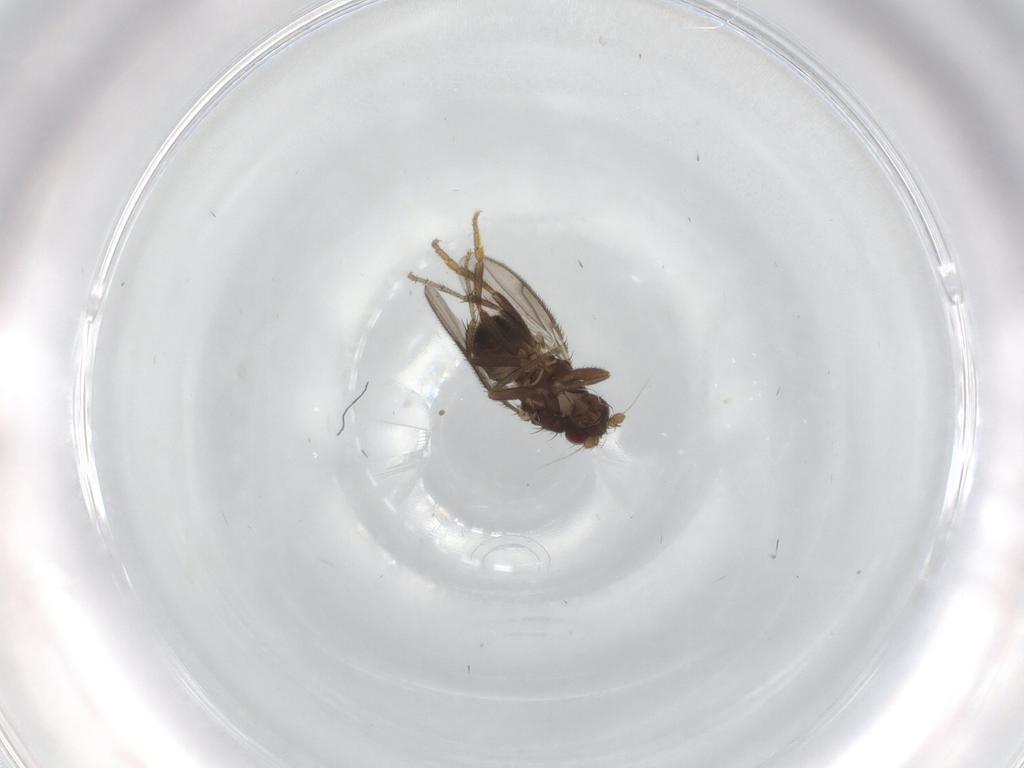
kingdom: Animalia
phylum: Arthropoda
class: Insecta
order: Diptera
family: Sphaeroceridae
